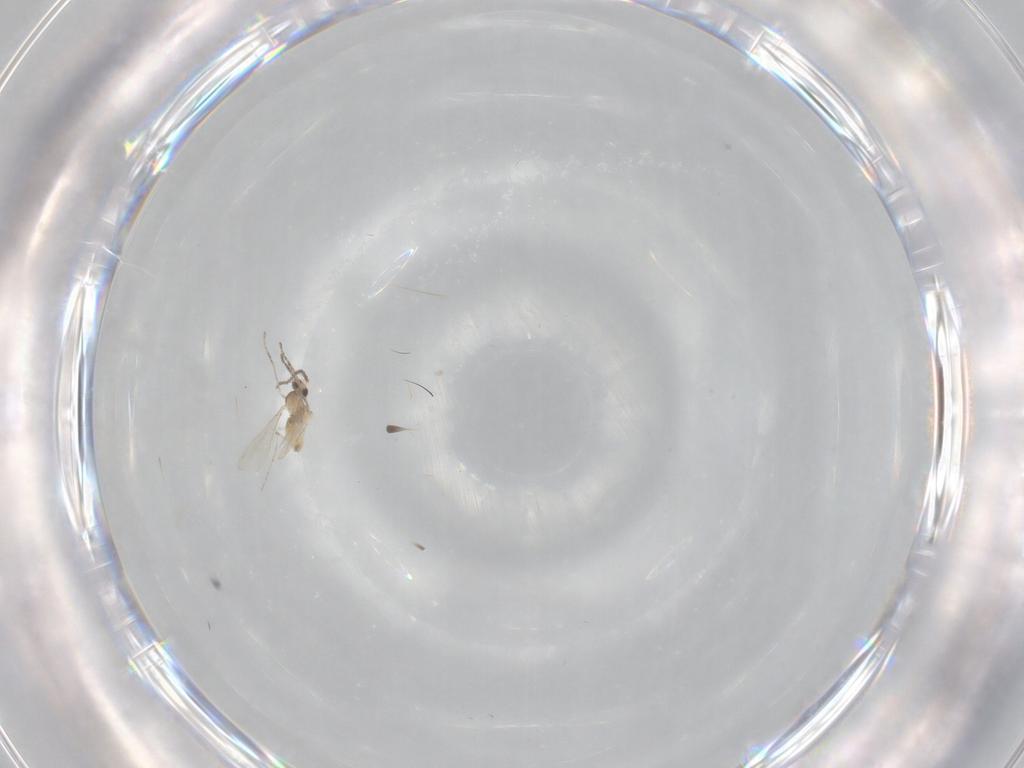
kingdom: Animalia
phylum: Arthropoda
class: Insecta
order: Diptera
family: Cecidomyiidae
